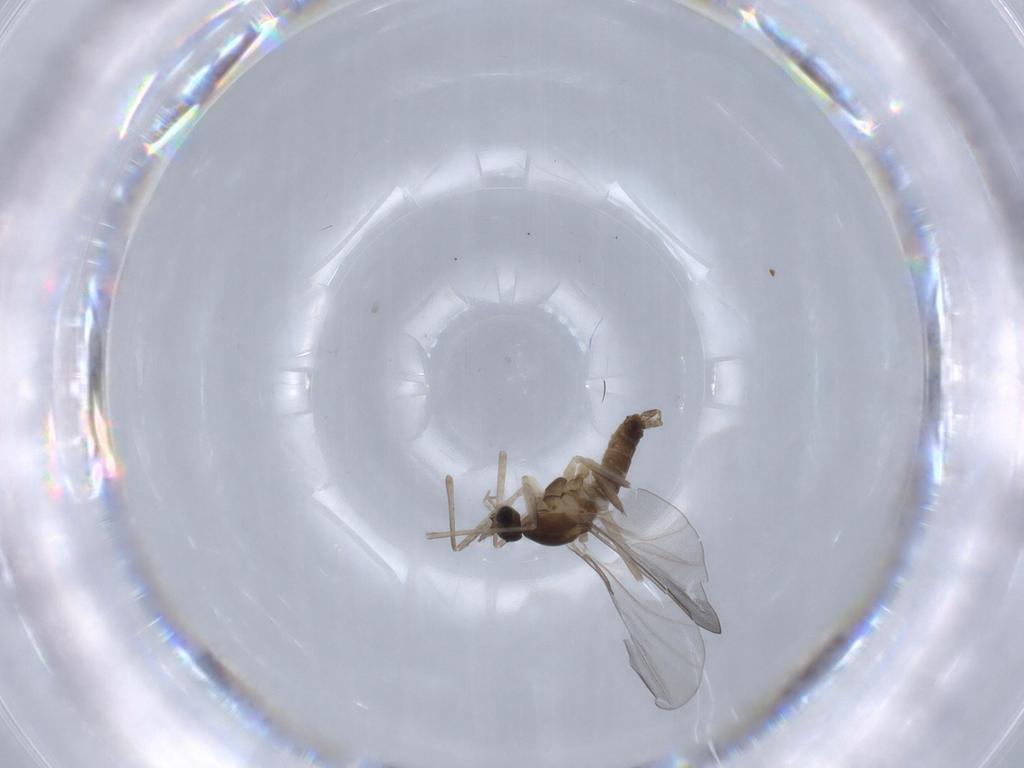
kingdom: Animalia
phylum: Arthropoda
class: Insecta
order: Diptera
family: Cecidomyiidae
